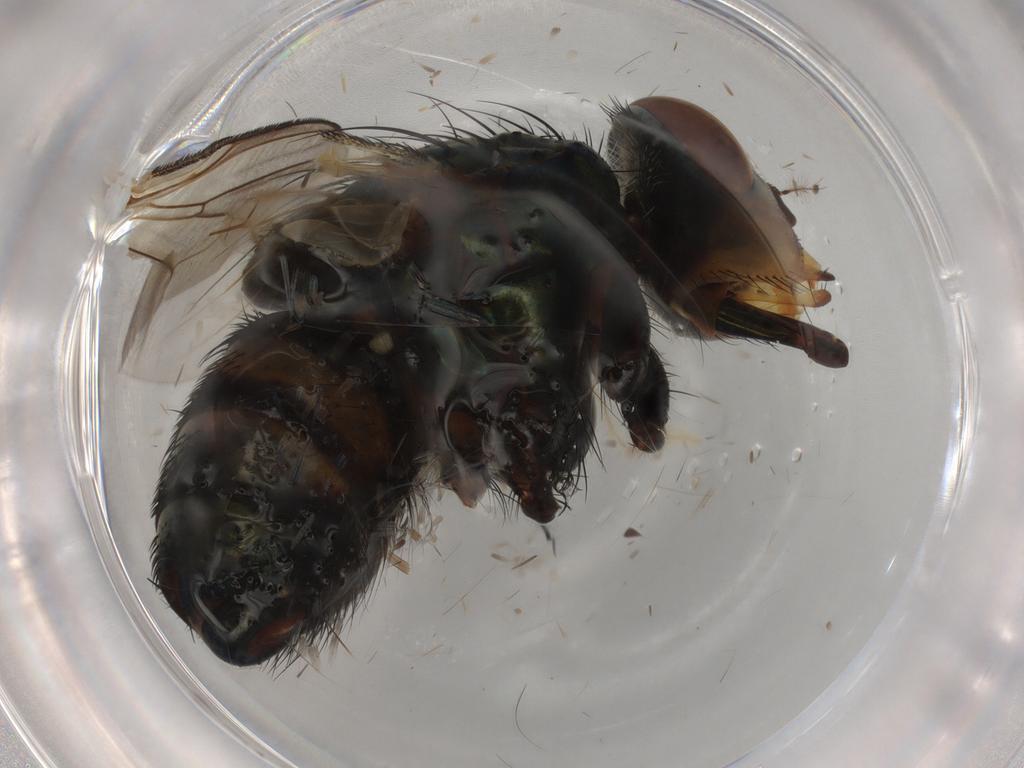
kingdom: Animalia
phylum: Arthropoda
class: Insecta
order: Diptera
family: Calliphoridae
